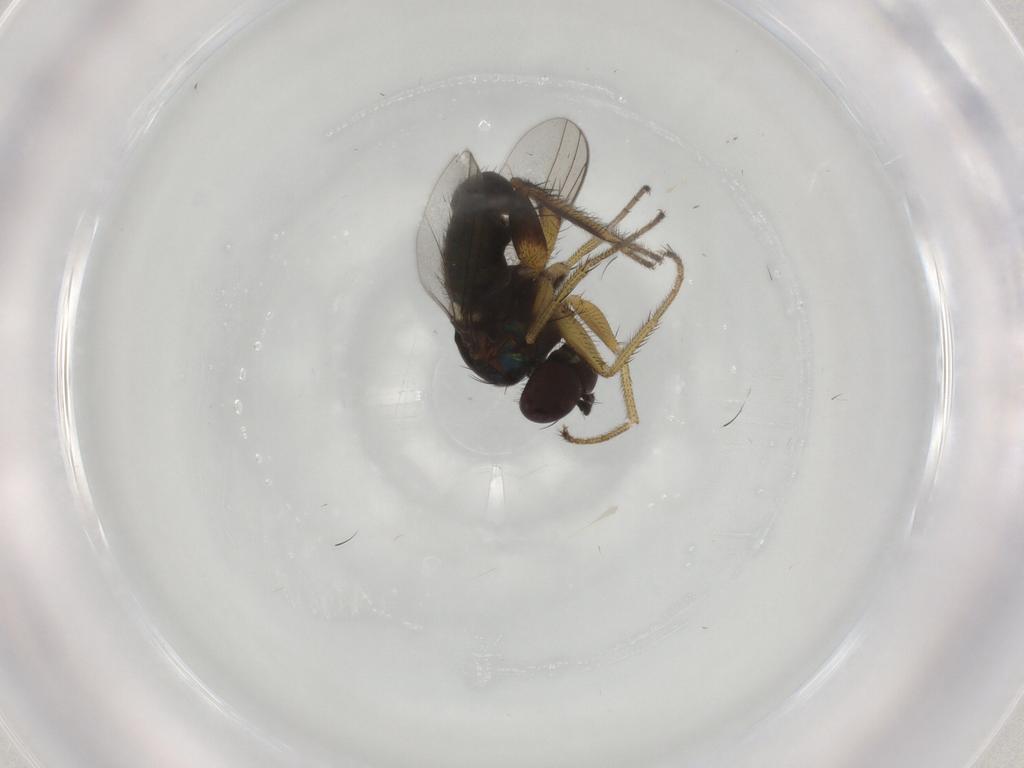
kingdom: Animalia
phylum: Arthropoda
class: Insecta
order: Diptera
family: Dolichopodidae
